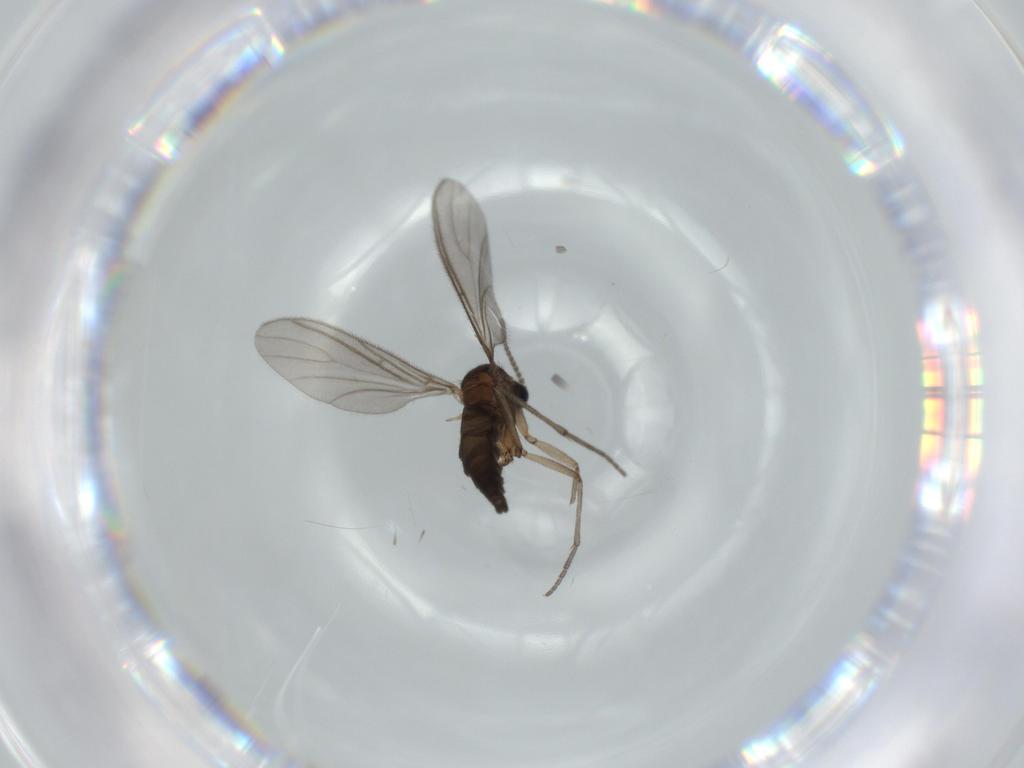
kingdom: Animalia
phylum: Arthropoda
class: Insecta
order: Diptera
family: Sciaridae
